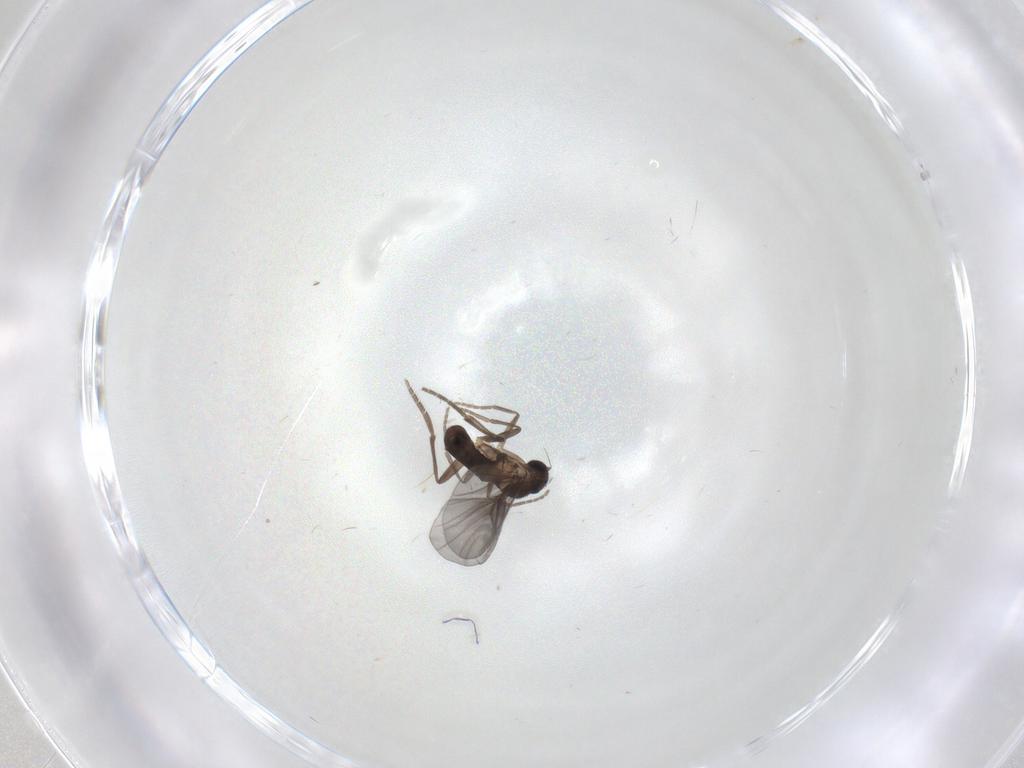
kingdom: Animalia
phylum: Arthropoda
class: Insecta
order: Diptera
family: Chironomidae
